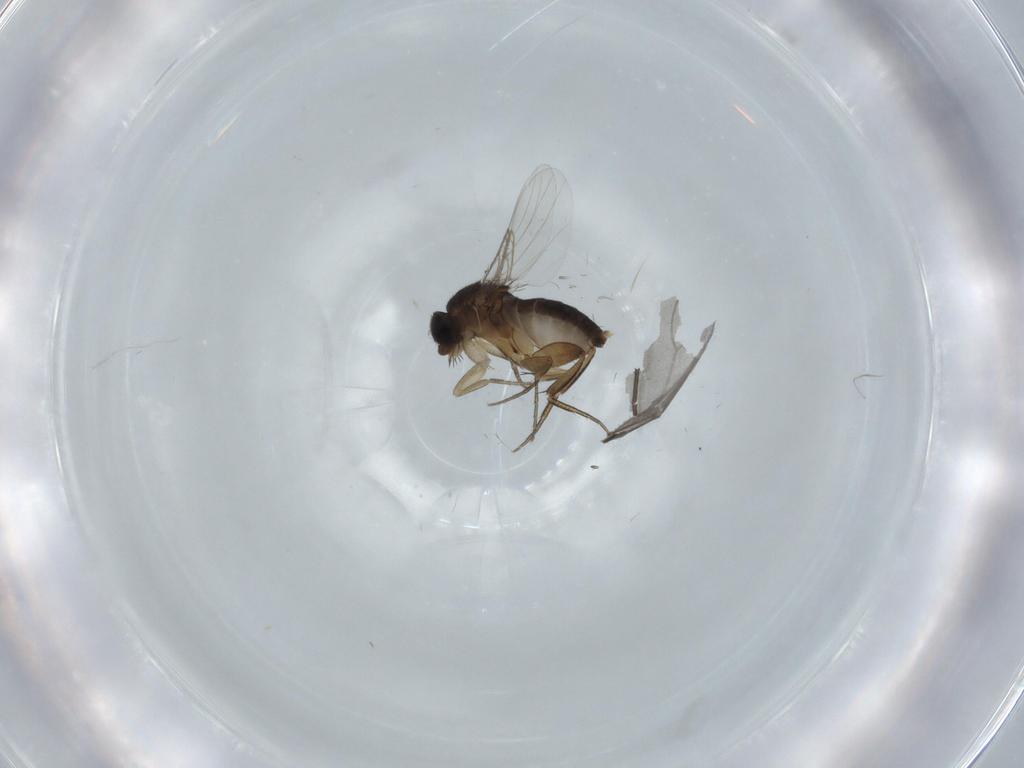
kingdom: Animalia
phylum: Arthropoda
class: Insecta
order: Diptera
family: Phoridae
